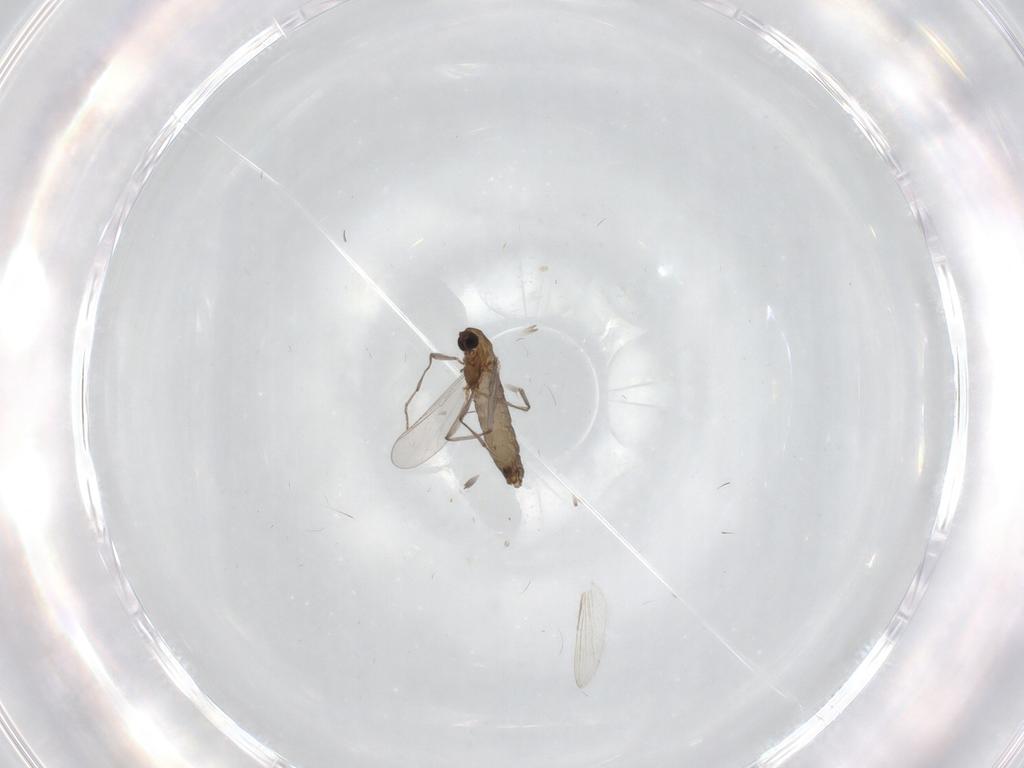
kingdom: Animalia
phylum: Arthropoda
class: Insecta
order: Diptera
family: Chironomidae
